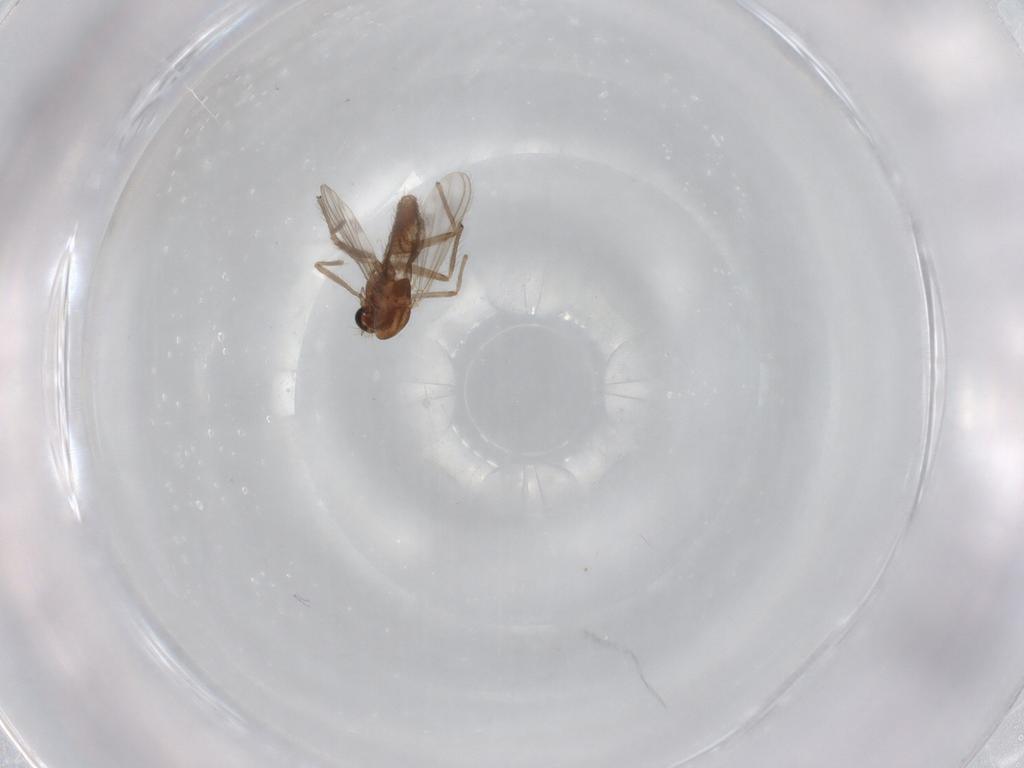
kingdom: Animalia
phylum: Arthropoda
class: Insecta
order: Diptera
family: Chironomidae
